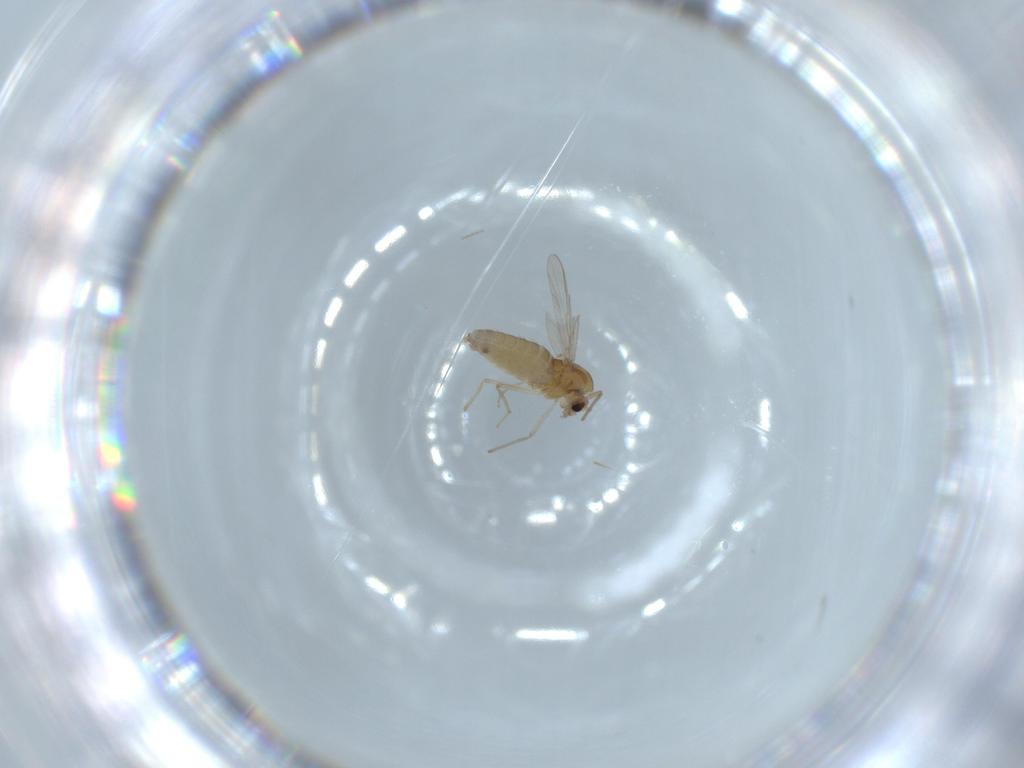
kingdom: Animalia
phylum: Arthropoda
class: Insecta
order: Diptera
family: Chironomidae
